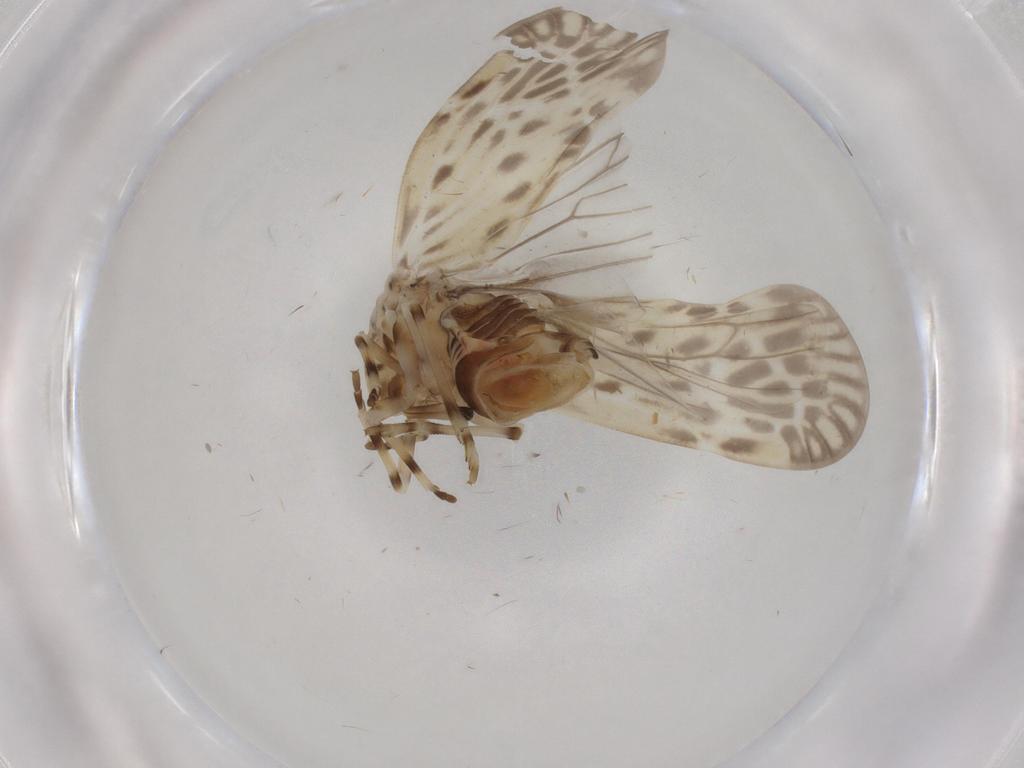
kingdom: Animalia
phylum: Arthropoda
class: Insecta
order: Hemiptera
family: Derbidae
